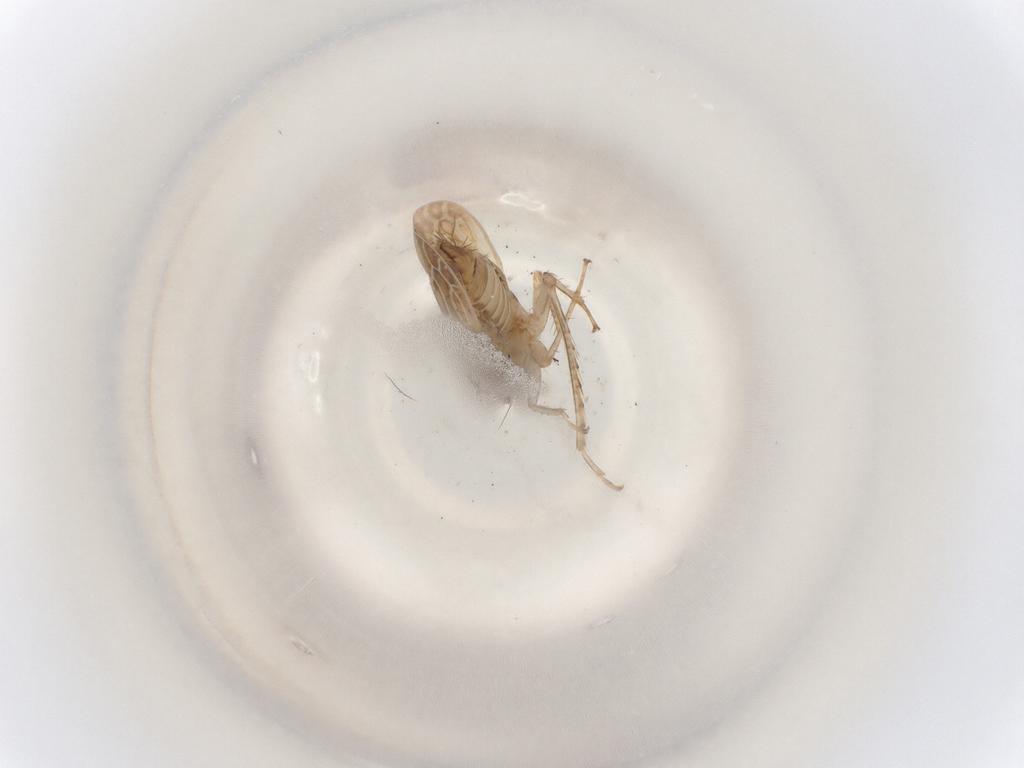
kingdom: Animalia
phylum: Arthropoda
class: Insecta
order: Hemiptera
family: Cicadellidae
